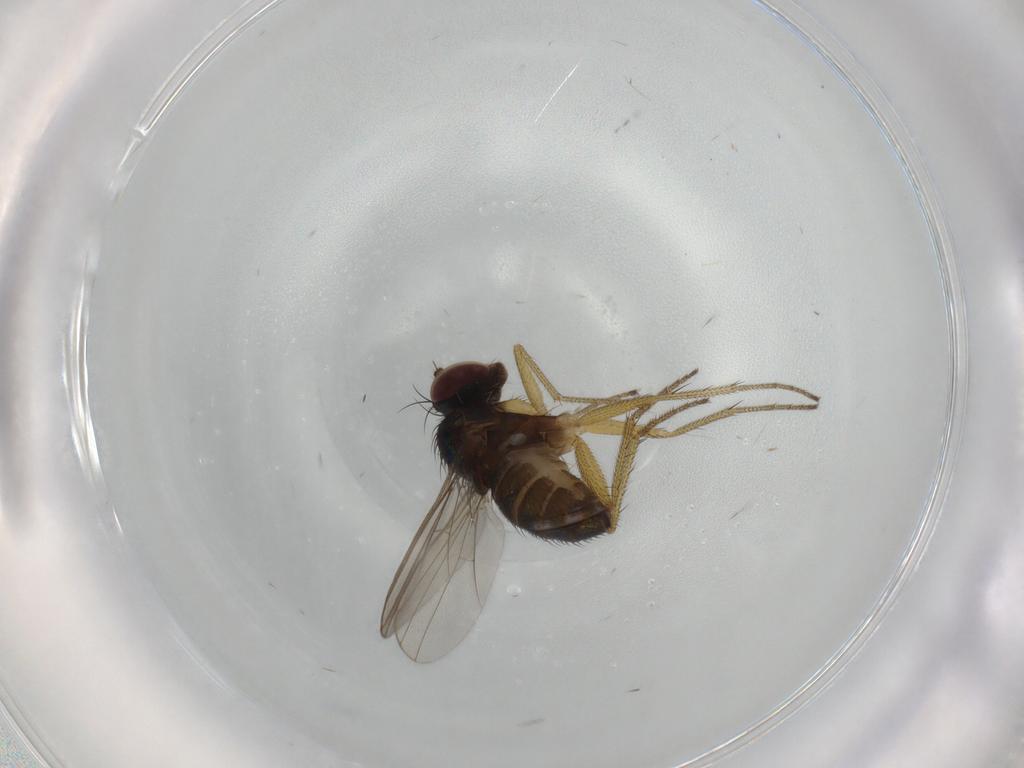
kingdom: Animalia
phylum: Arthropoda
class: Insecta
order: Diptera
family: Dolichopodidae
